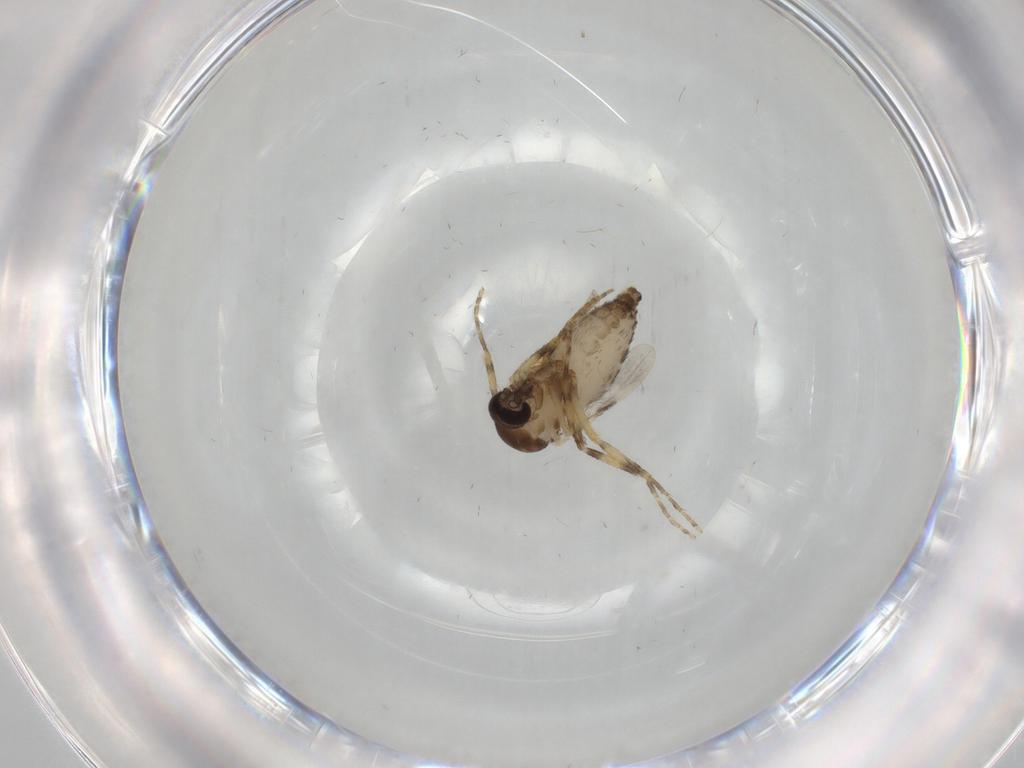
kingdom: Animalia
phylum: Arthropoda
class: Insecta
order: Diptera
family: Ceratopogonidae
